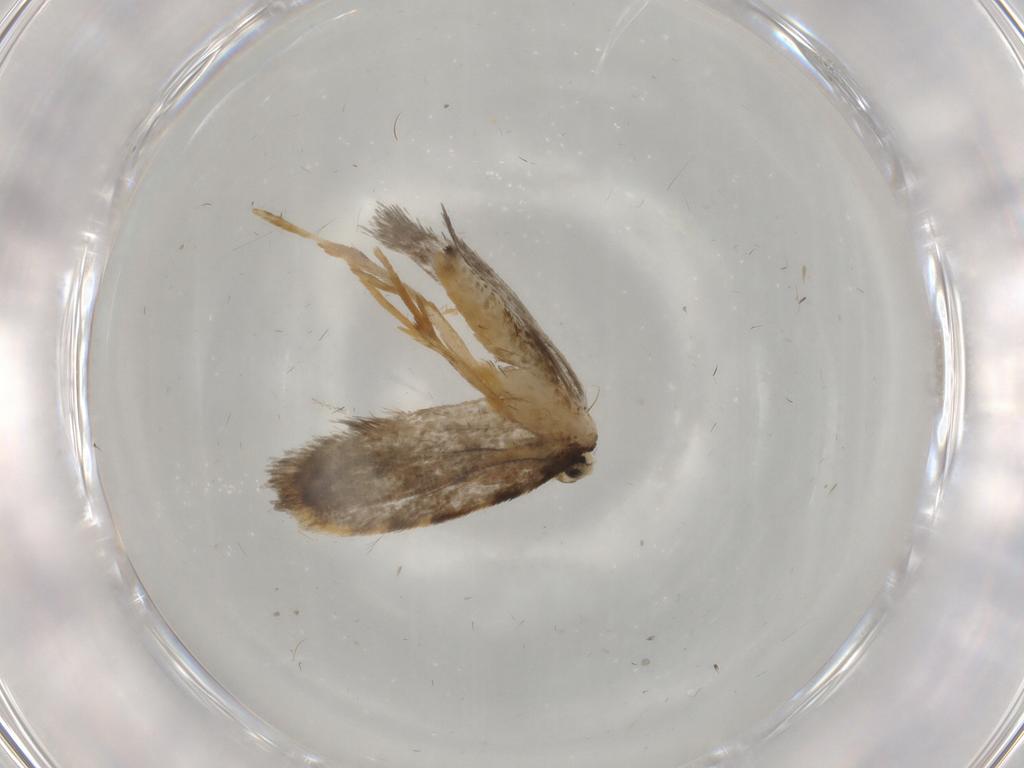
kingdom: Animalia
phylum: Arthropoda
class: Insecta
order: Lepidoptera
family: Psychidae
